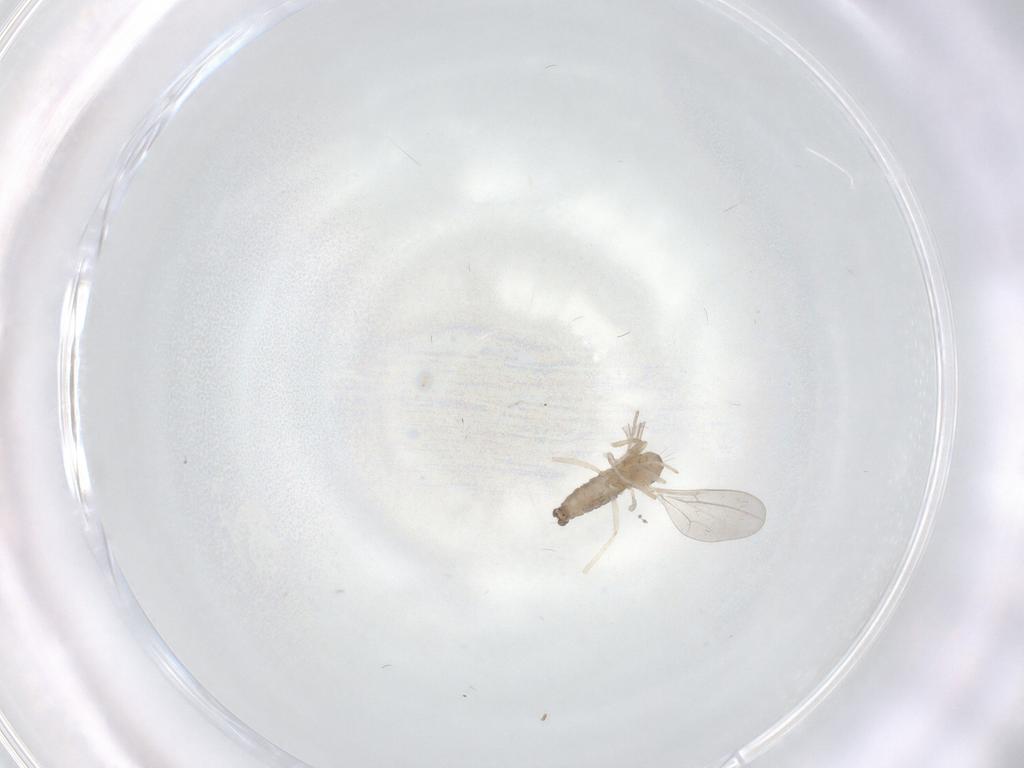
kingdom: Animalia
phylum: Arthropoda
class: Insecta
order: Diptera
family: Cecidomyiidae
